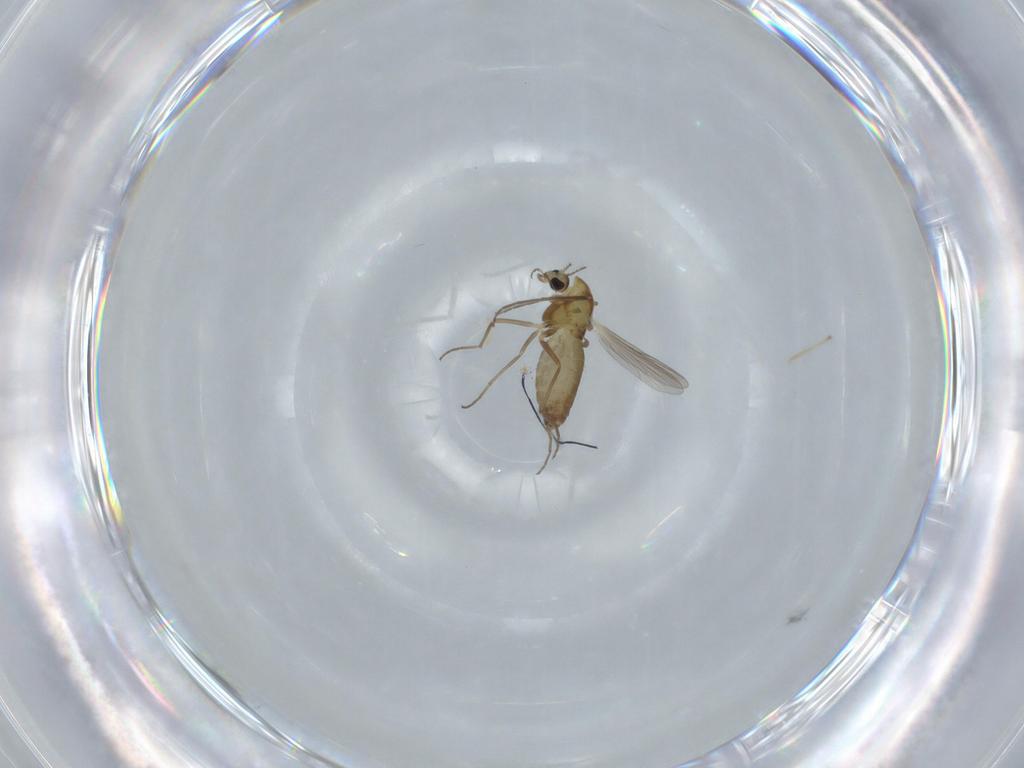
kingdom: Animalia
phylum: Arthropoda
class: Insecta
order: Diptera
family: Chironomidae
